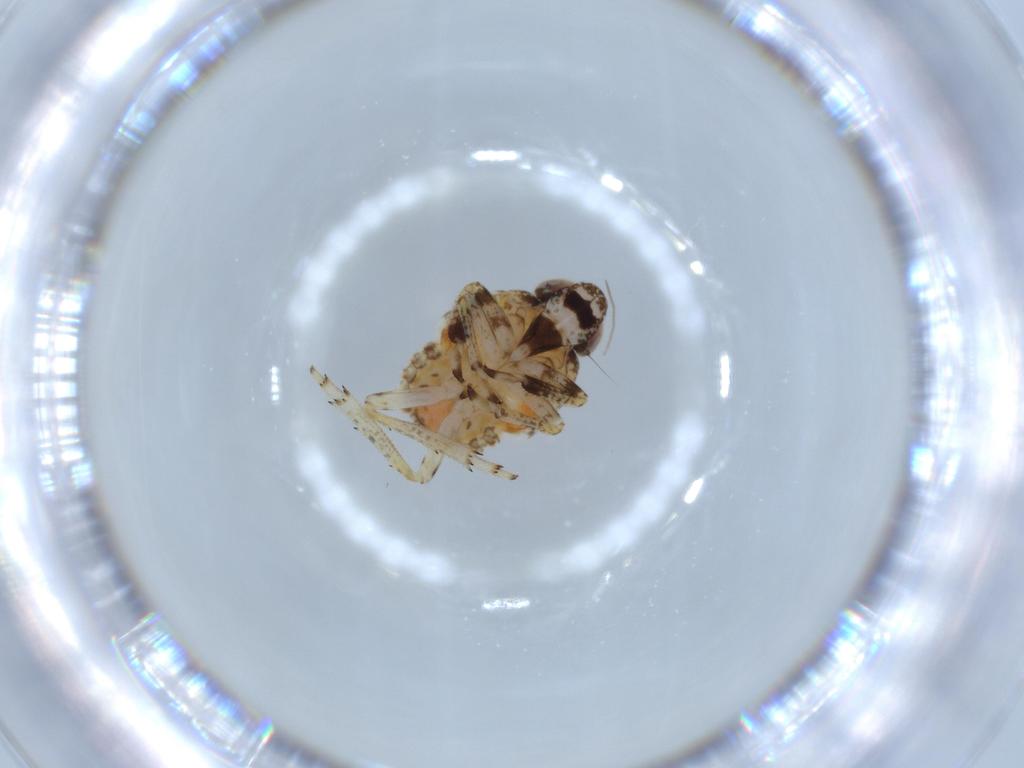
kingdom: Animalia
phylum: Arthropoda
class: Insecta
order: Hemiptera
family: Issidae
